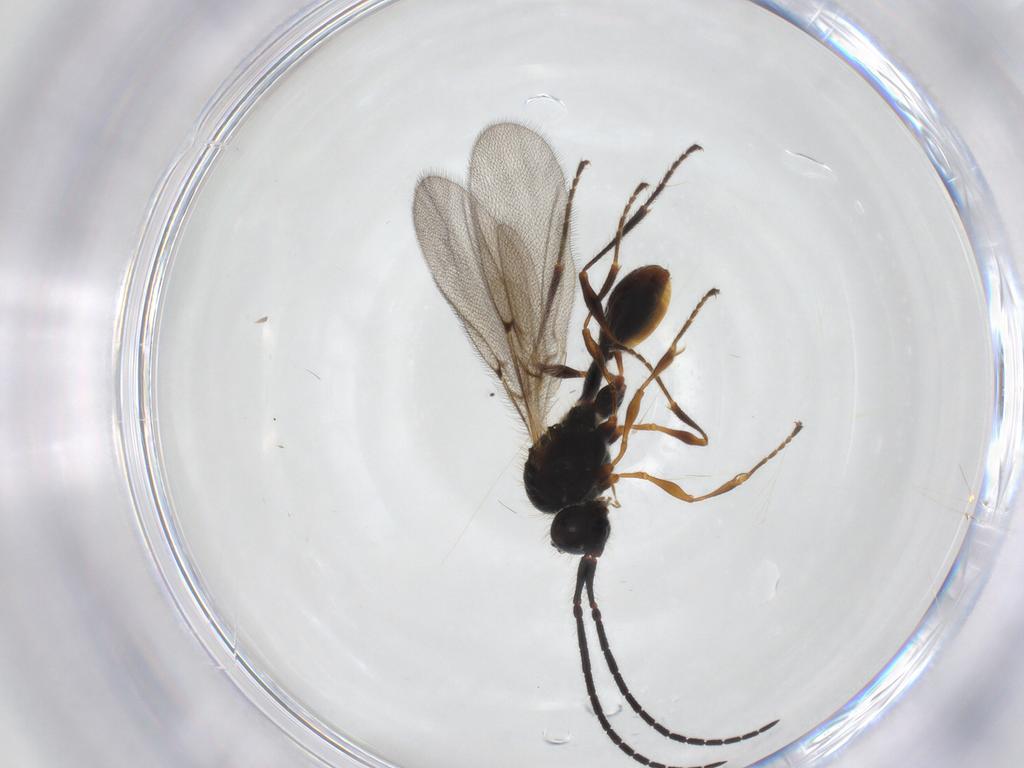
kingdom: Animalia
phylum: Arthropoda
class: Insecta
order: Hymenoptera
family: Diapriidae
